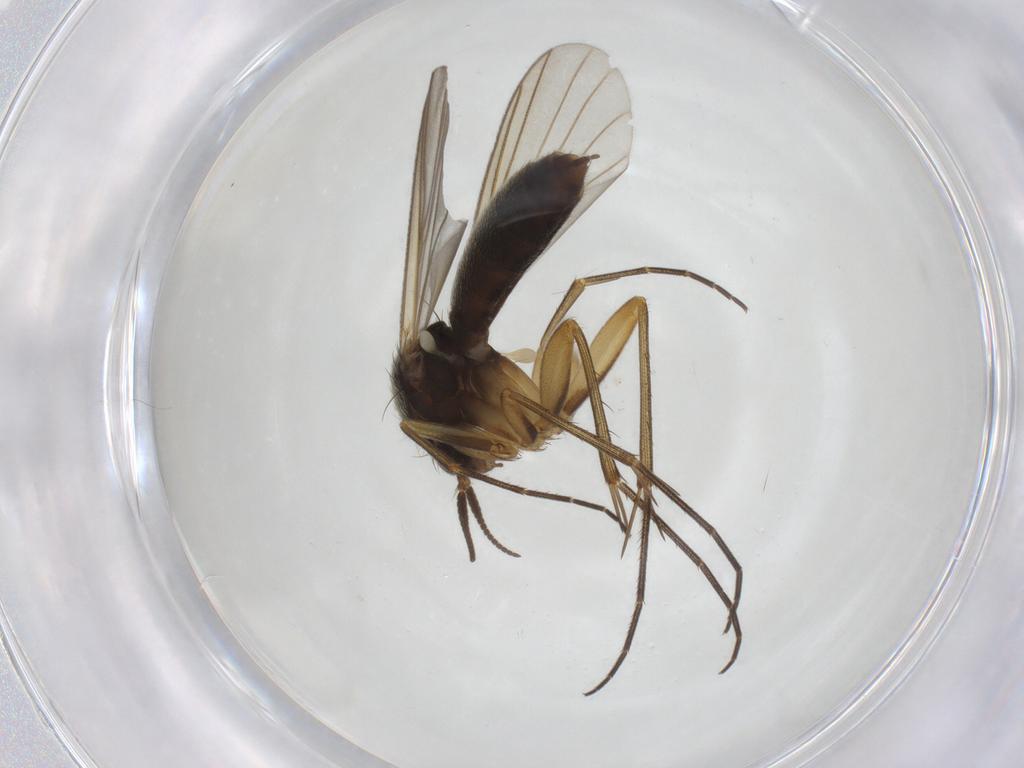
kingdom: Animalia
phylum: Arthropoda
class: Insecta
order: Diptera
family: Mycetophilidae
